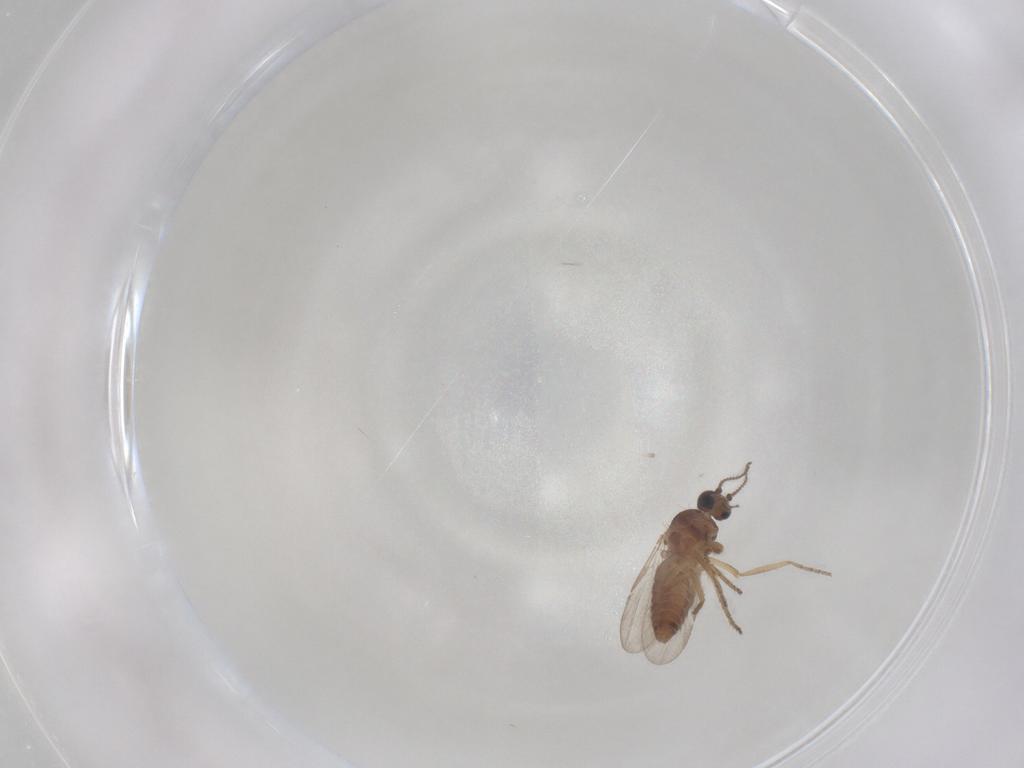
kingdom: Animalia
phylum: Arthropoda
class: Insecta
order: Diptera
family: Ceratopogonidae
